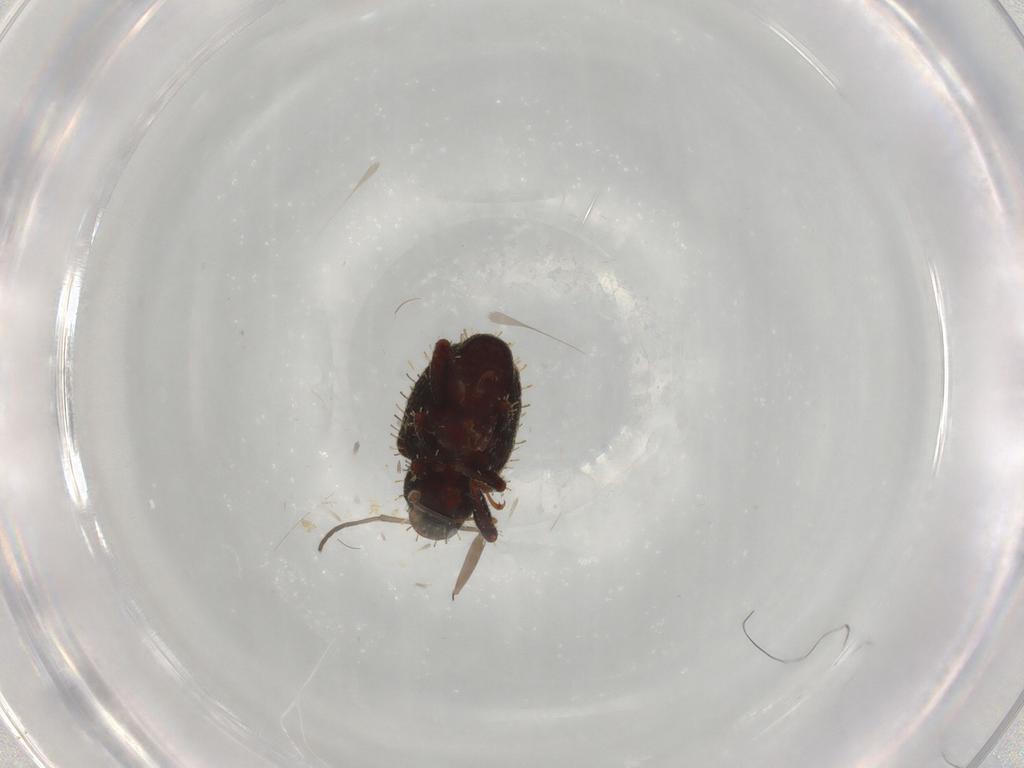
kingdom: Animalia
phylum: Arthropoda
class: Insecta
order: Coleoptera
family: Curculionidae
